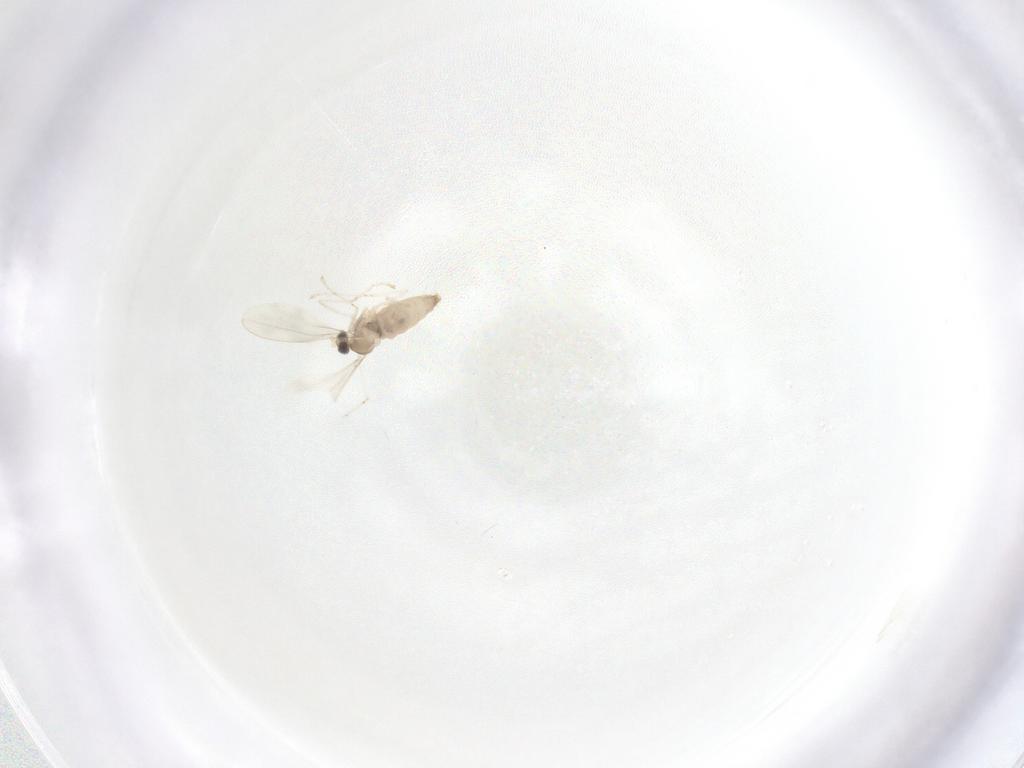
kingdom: Animalia
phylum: Arthropoda
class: Insecta
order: Diptera
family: Cecidomyiidae
